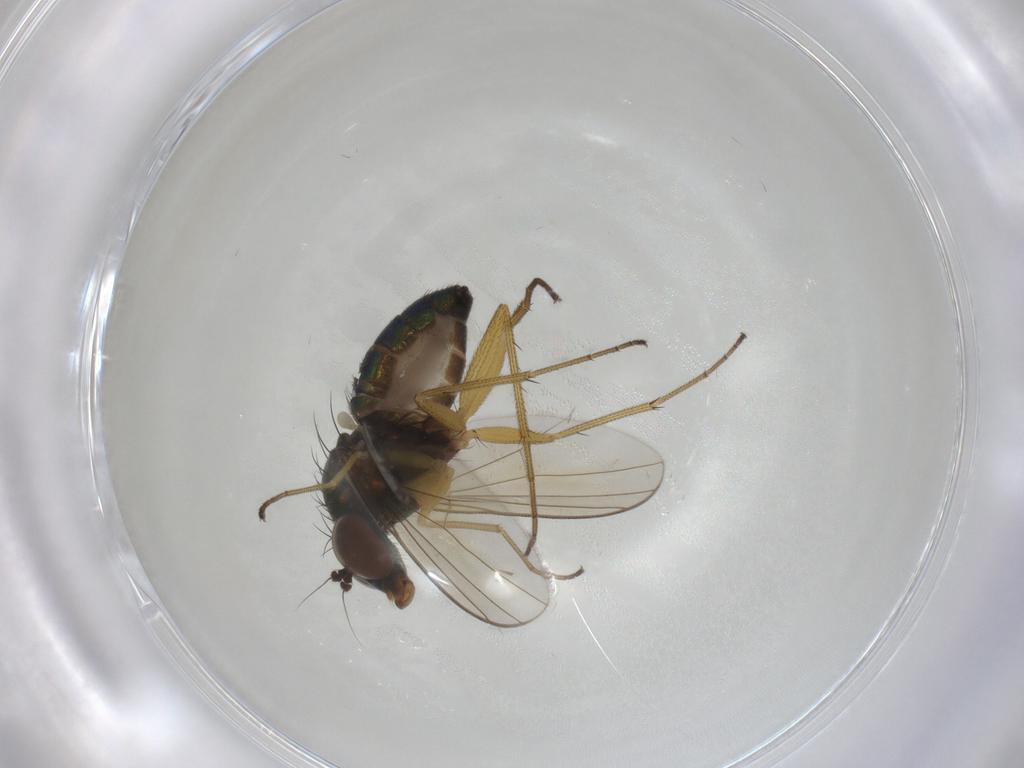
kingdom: Animalia
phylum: Arthropoda
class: Insecta
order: Diptera
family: Dolichopodidae
